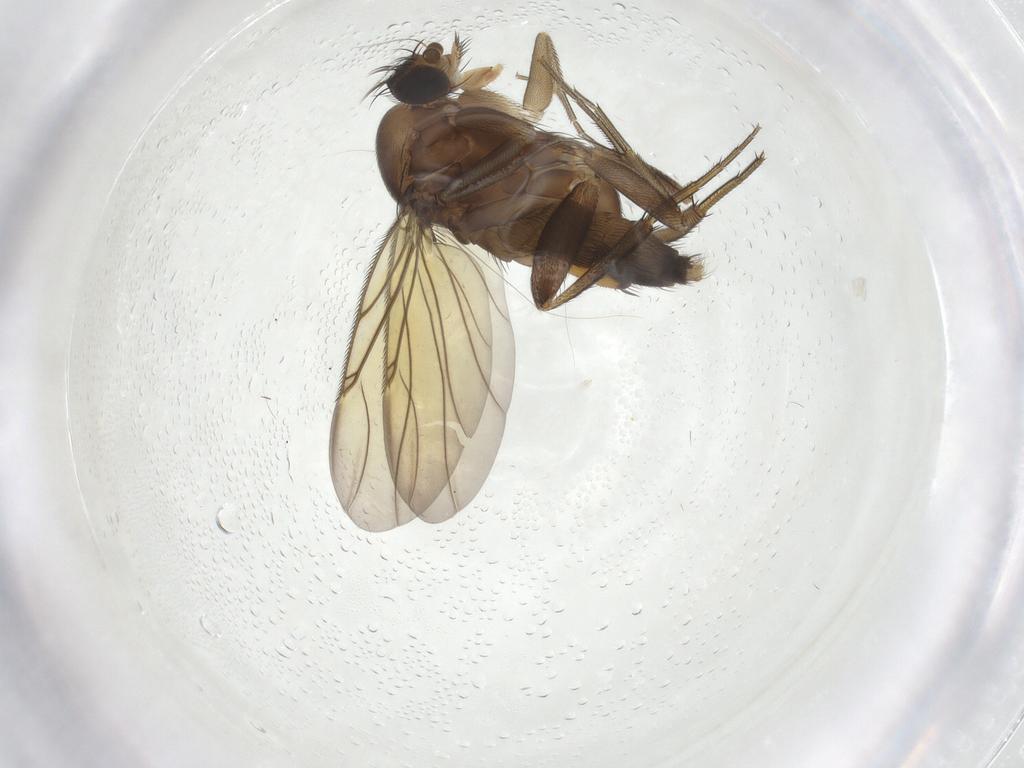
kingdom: Animalia
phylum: Arthropoda
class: Insecta
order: Diptera
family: Phoridae
